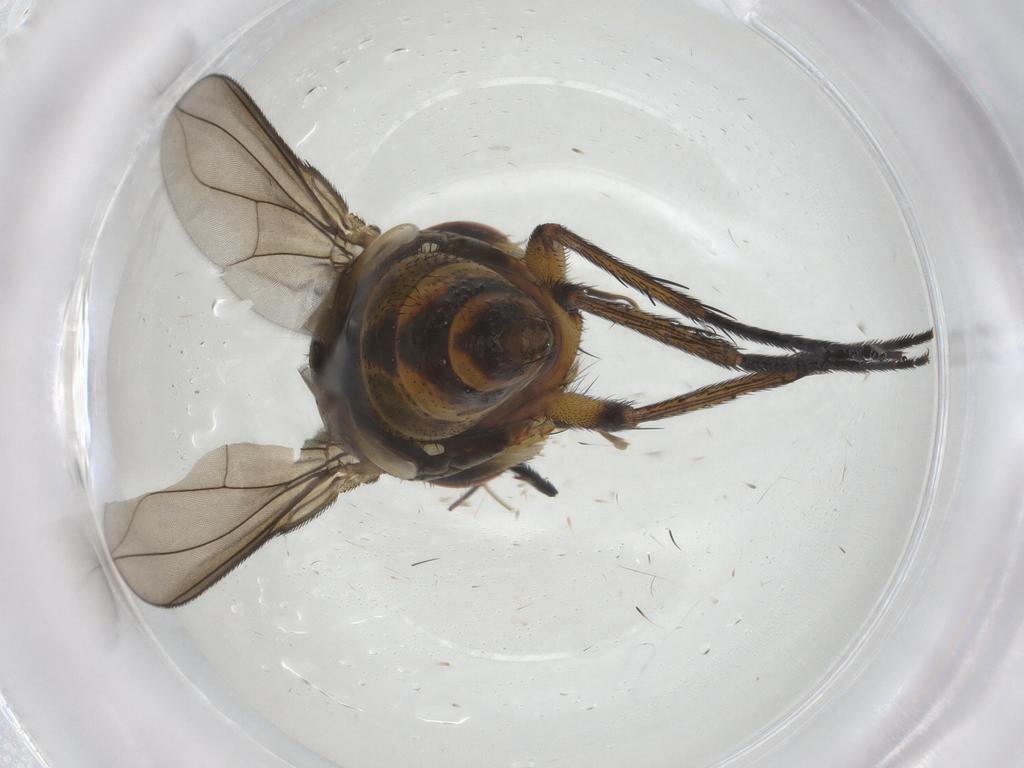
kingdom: Animalia
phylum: Arthropoda
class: Insecta
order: Diptera
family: Tachinidae
